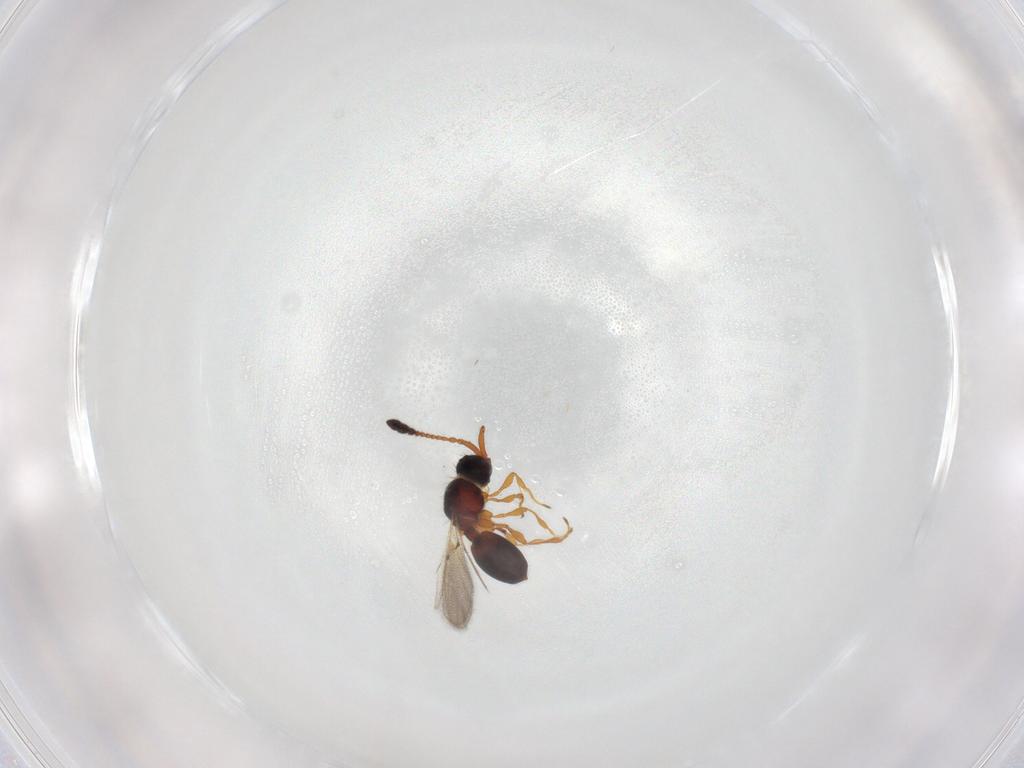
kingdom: Animalia
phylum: Arthropoda
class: Insecta
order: Hymenoptera
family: Diapriidae
